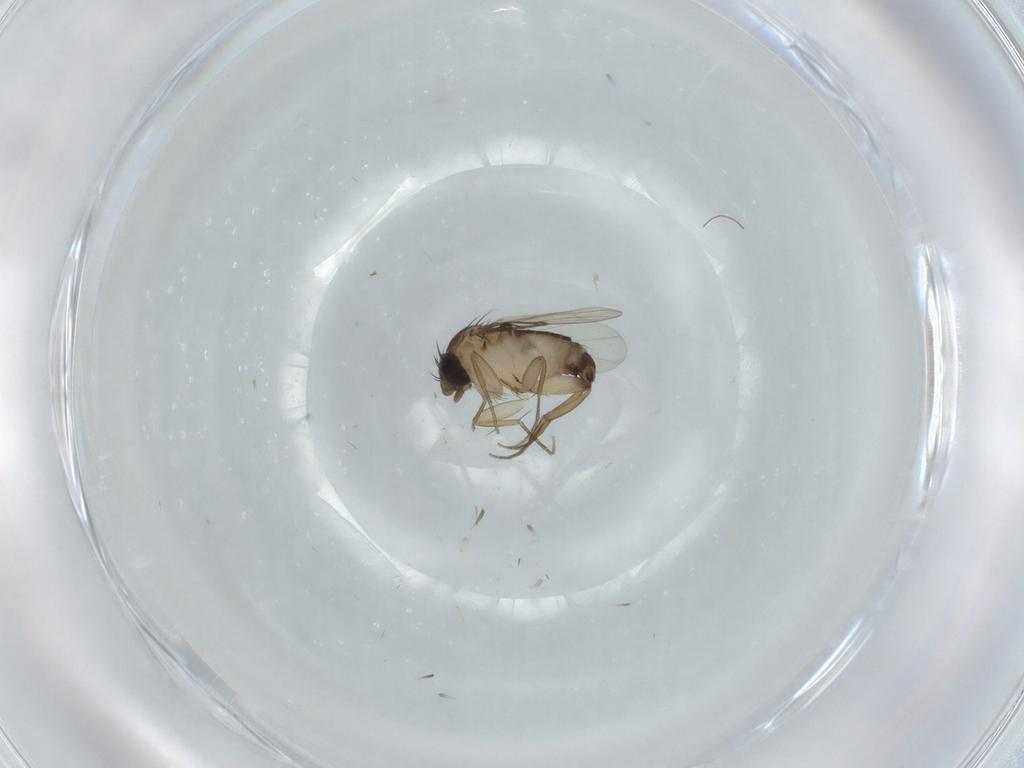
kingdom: Animalia
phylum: Arthropoda
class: Insecta
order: Diptera
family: Phoridae
